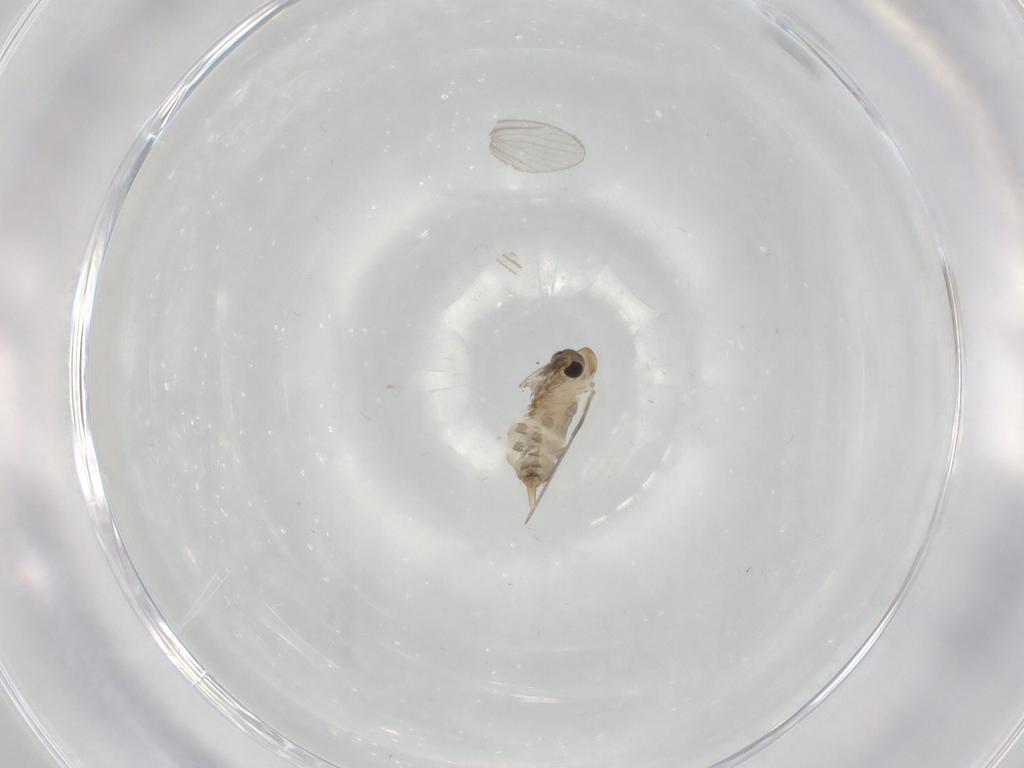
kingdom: Animalia
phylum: Arthropoda
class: Insecta
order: Diptera
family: Psychodidae
